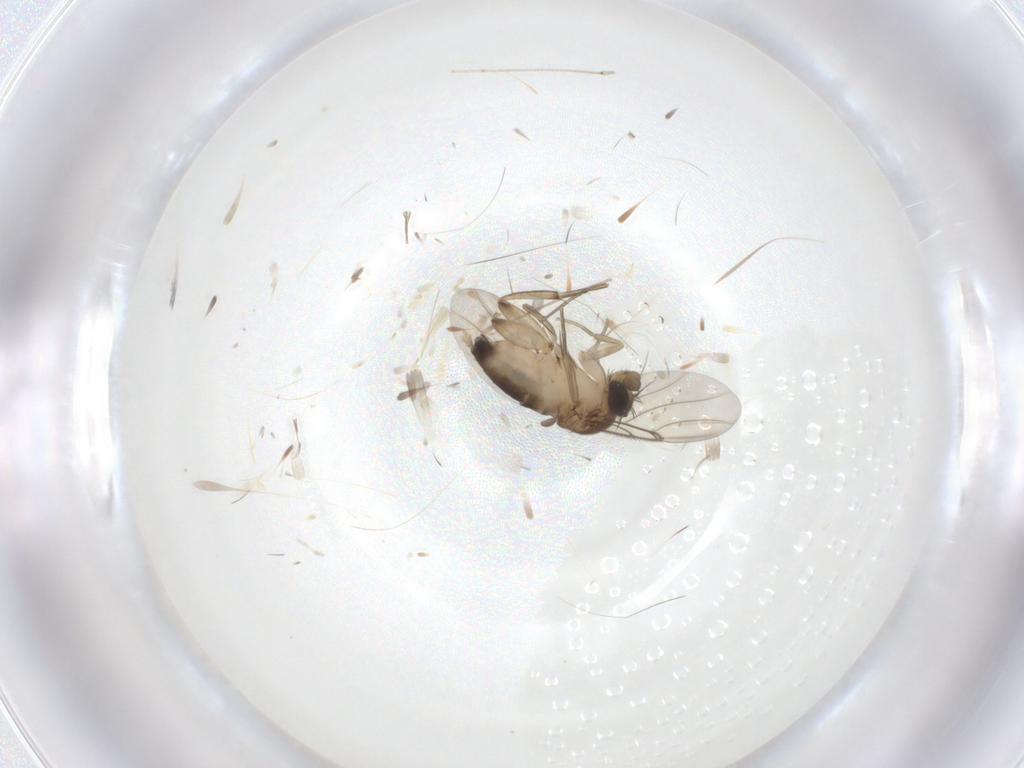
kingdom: Animalia
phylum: Arthropoda
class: Insecta
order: Diptera
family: Phoridae
